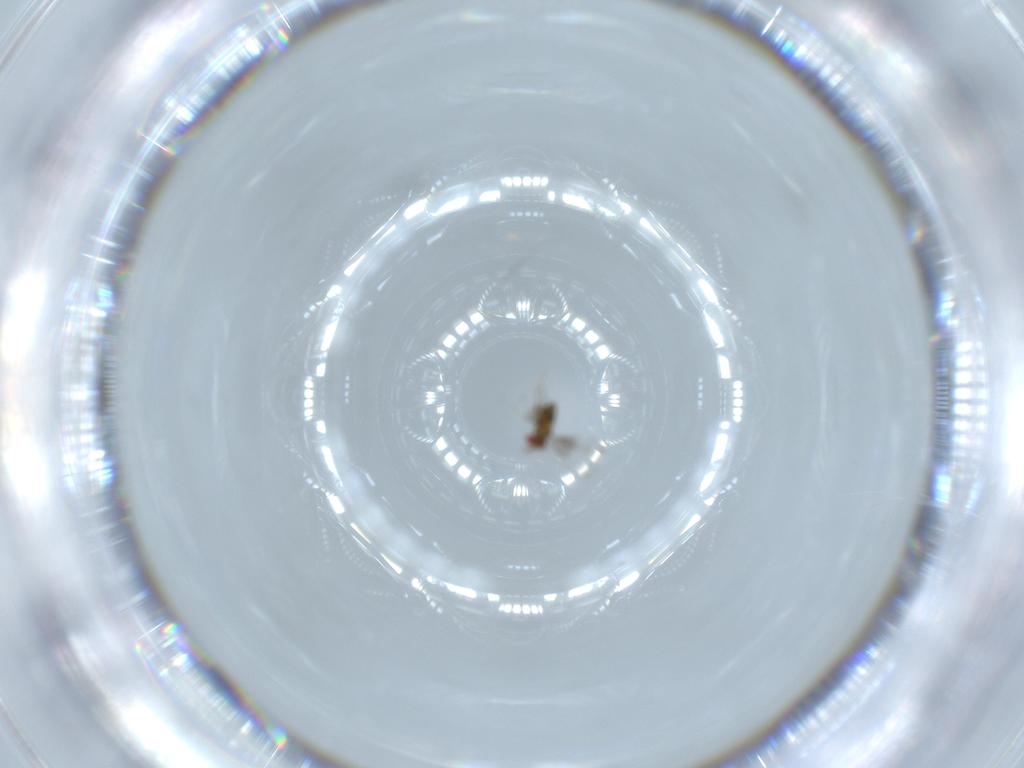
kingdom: Animalia
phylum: Arthropoda
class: Insecta
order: Hymenoptera
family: Trichogrammatidae
